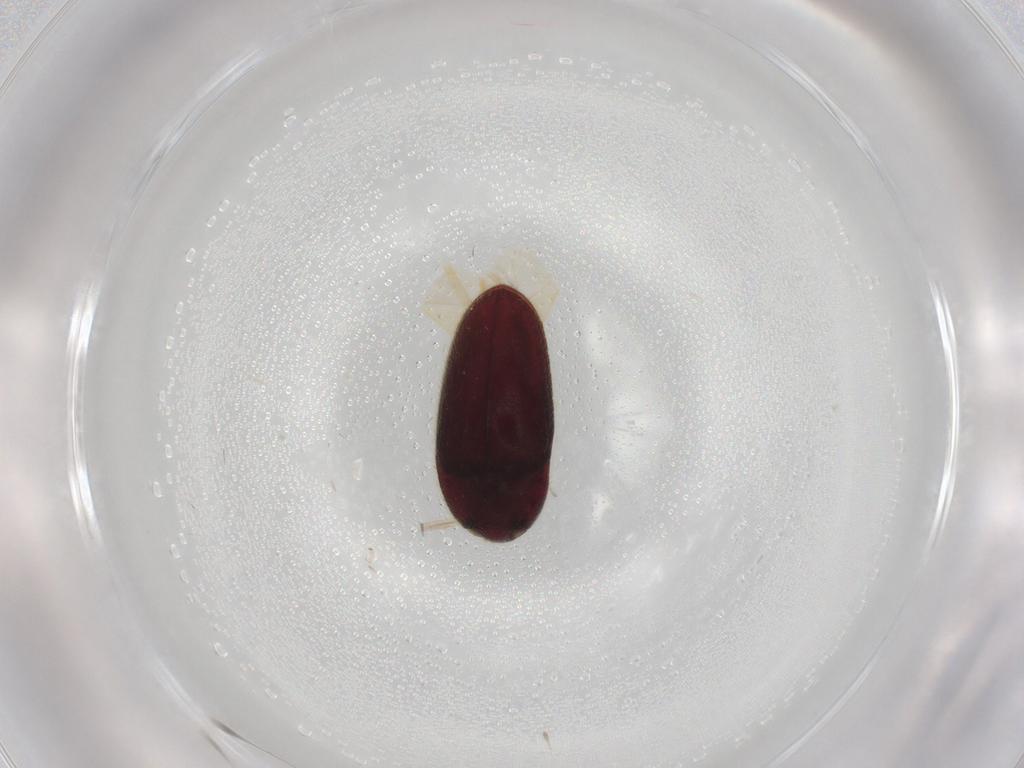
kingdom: Animalia
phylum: Arthropoda
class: Insecta
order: Coleoptera
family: Throscidae
